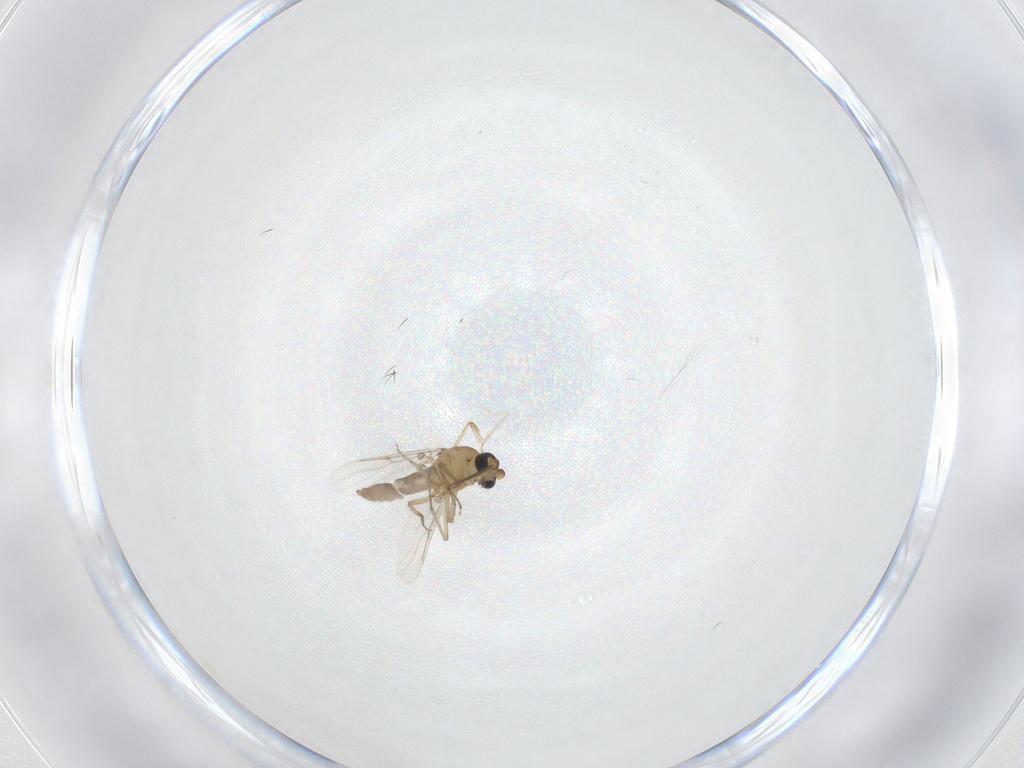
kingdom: Animalia
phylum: Arthropoda
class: Insecta
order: Diptera
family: Ceratopogonidae
